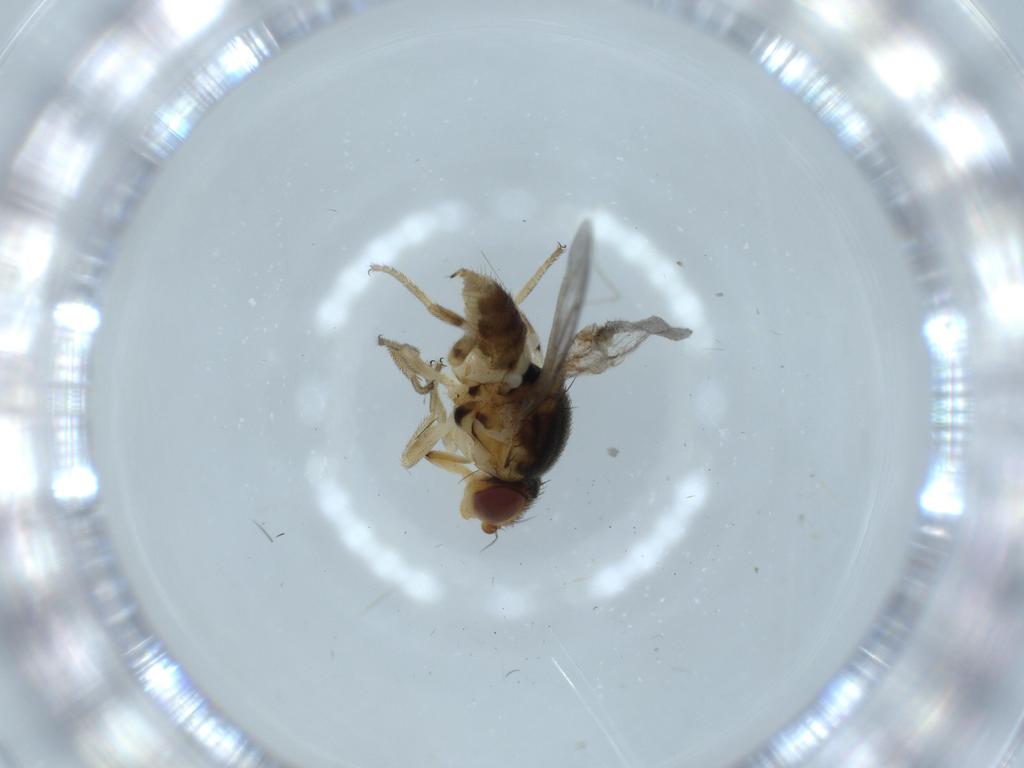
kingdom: Animalia
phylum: Arthropoda
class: Insecta
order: Diptera
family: Chloropidae
